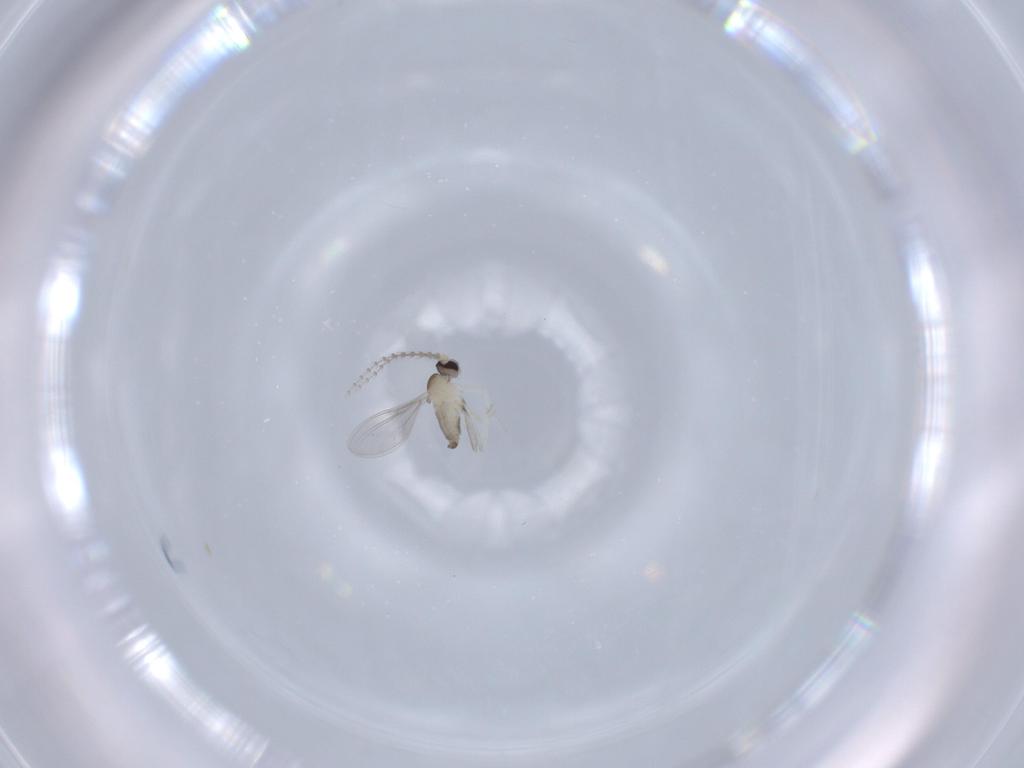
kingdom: Animalia
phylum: Arthropoda
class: Insecta
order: Diptera
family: Cecidomyiidae
